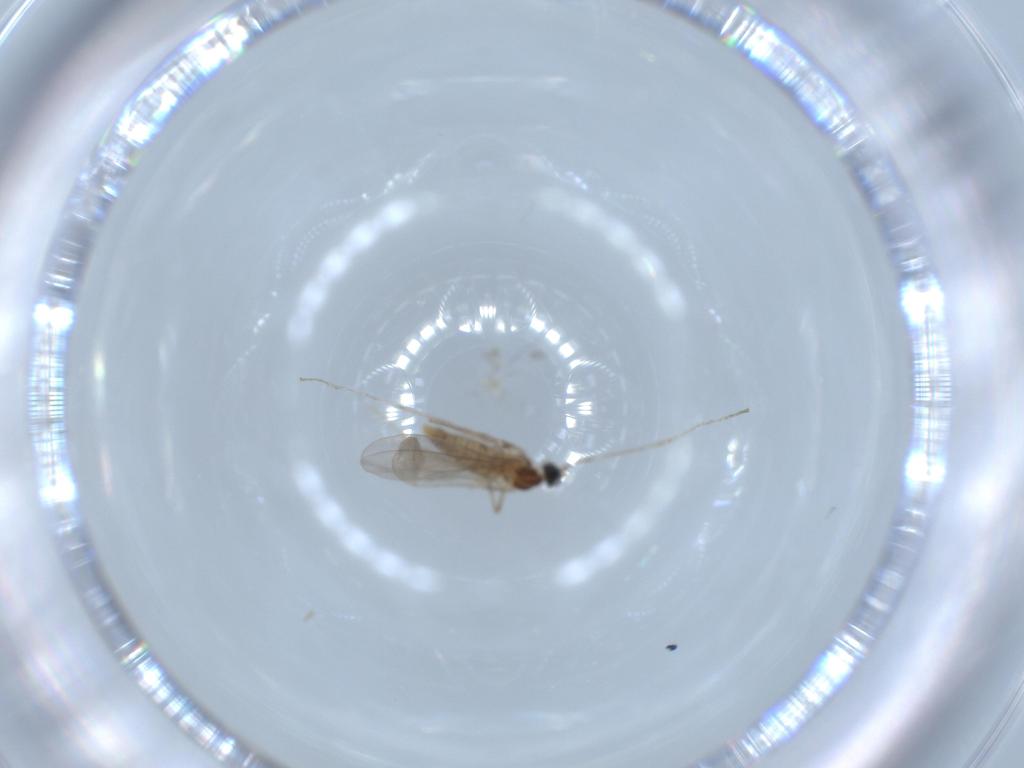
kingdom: Animalia
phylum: Arthropoda
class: Insecta
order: Diptera
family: Cecidomyiidae
